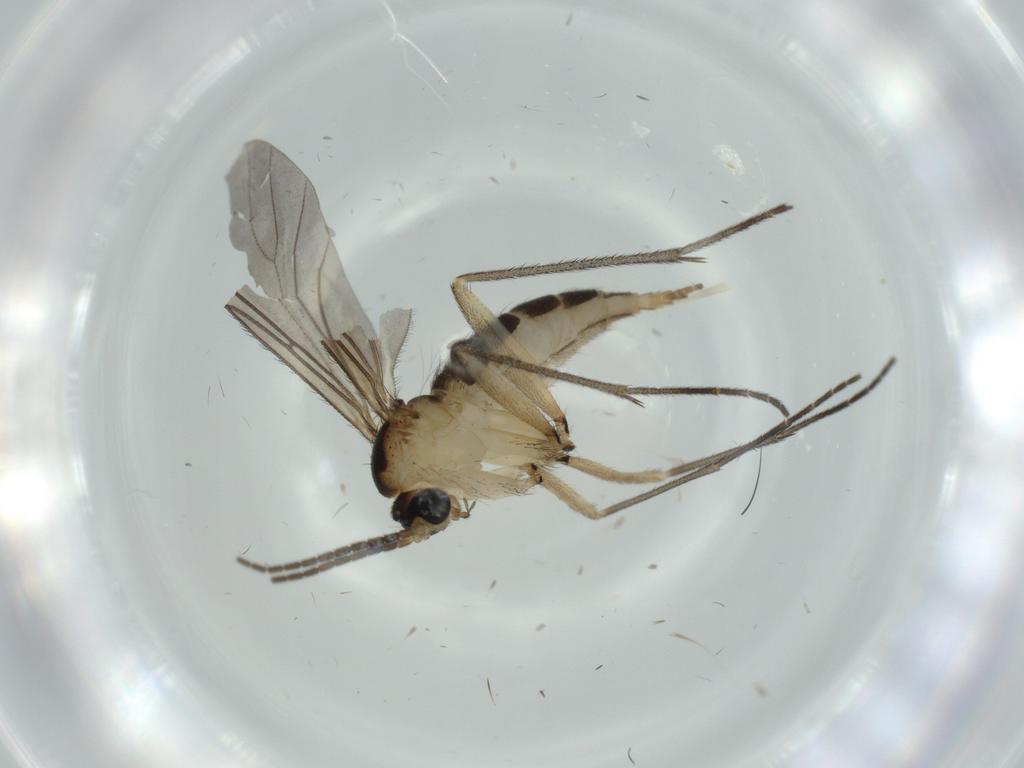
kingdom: Animalia
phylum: Arthropoda
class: Insecta
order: Diptera
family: Sciaridae
